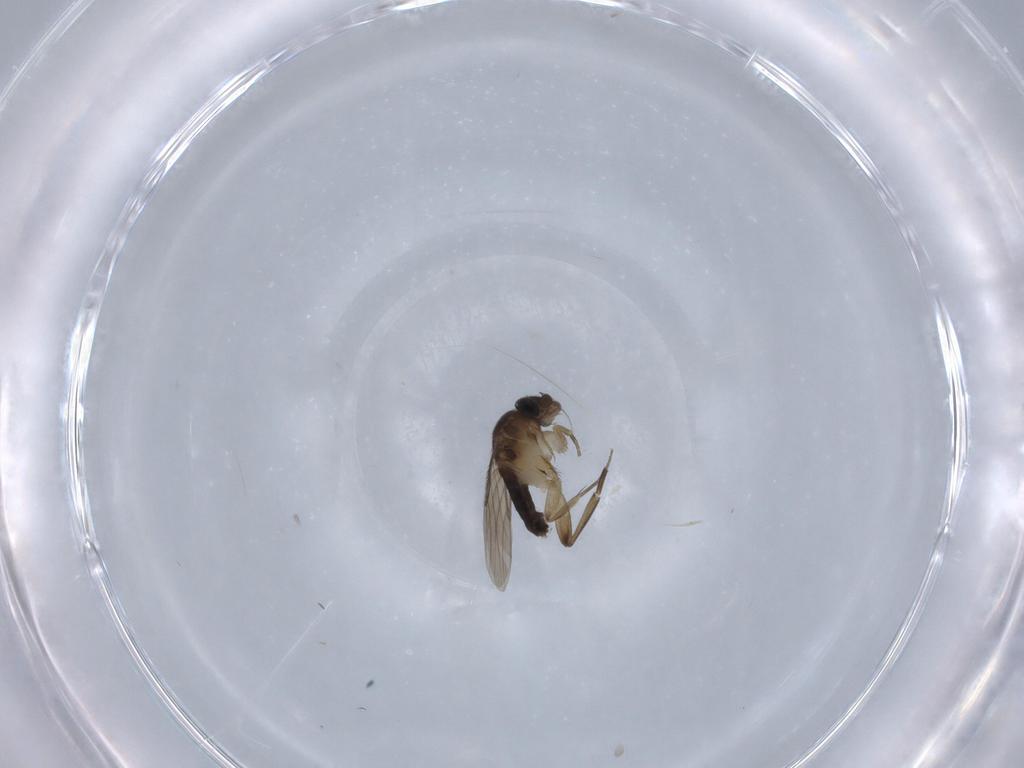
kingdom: Animalia
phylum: Arthropoda
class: Insecta
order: Diptera
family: Phoridae
